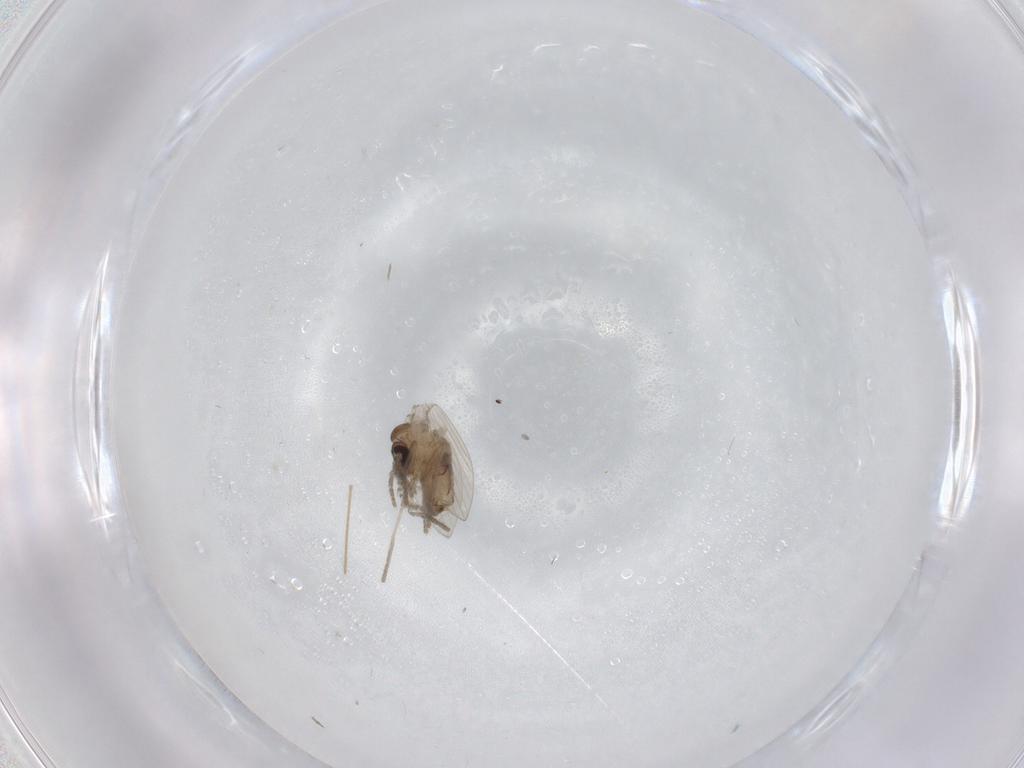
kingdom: Animalia
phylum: Arthropoda
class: Insecta
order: Diptera
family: Psychodidae
